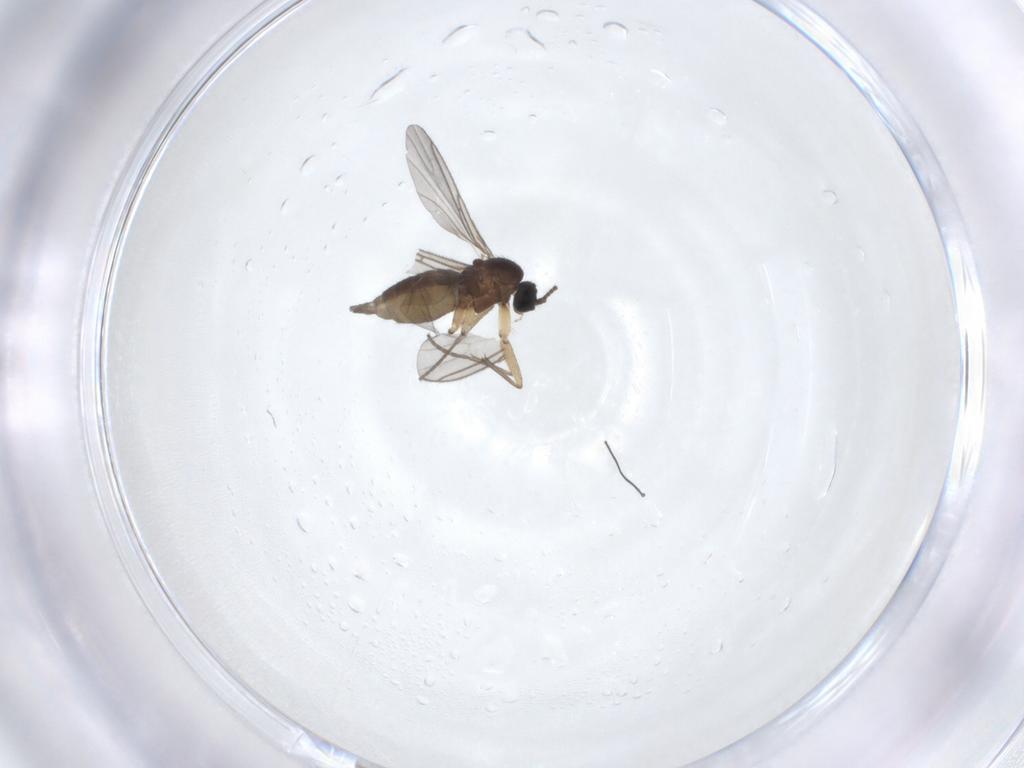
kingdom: Animalia
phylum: Arthropoda
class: Insecta
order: Diptera
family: Sciaridae
